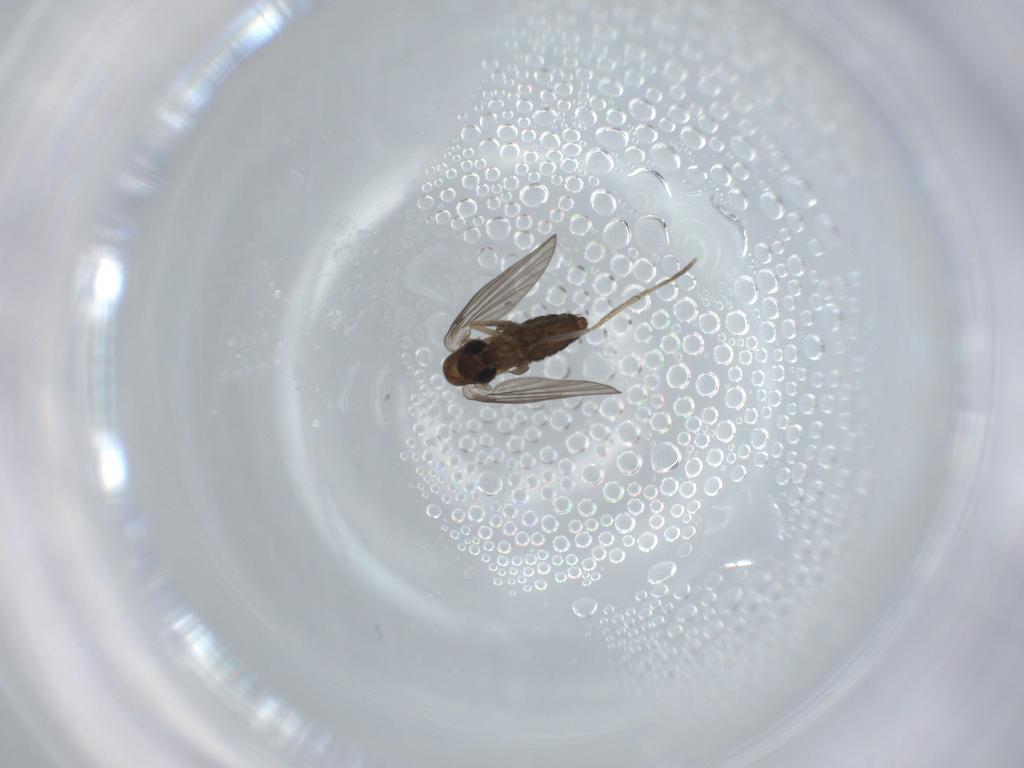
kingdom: Animalia
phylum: Arthropoda
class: Insecta
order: Diptera
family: Psychodidae
